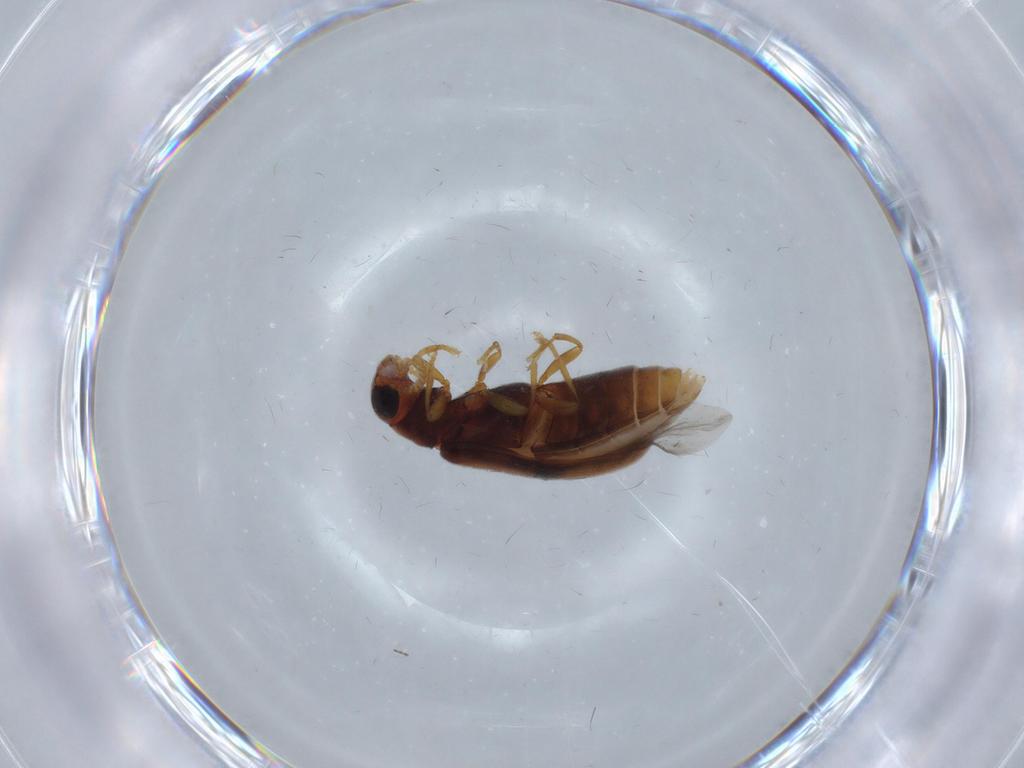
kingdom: Animalia
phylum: Arthropoda
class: Insecta
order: Coleoptera
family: Mycteridae
